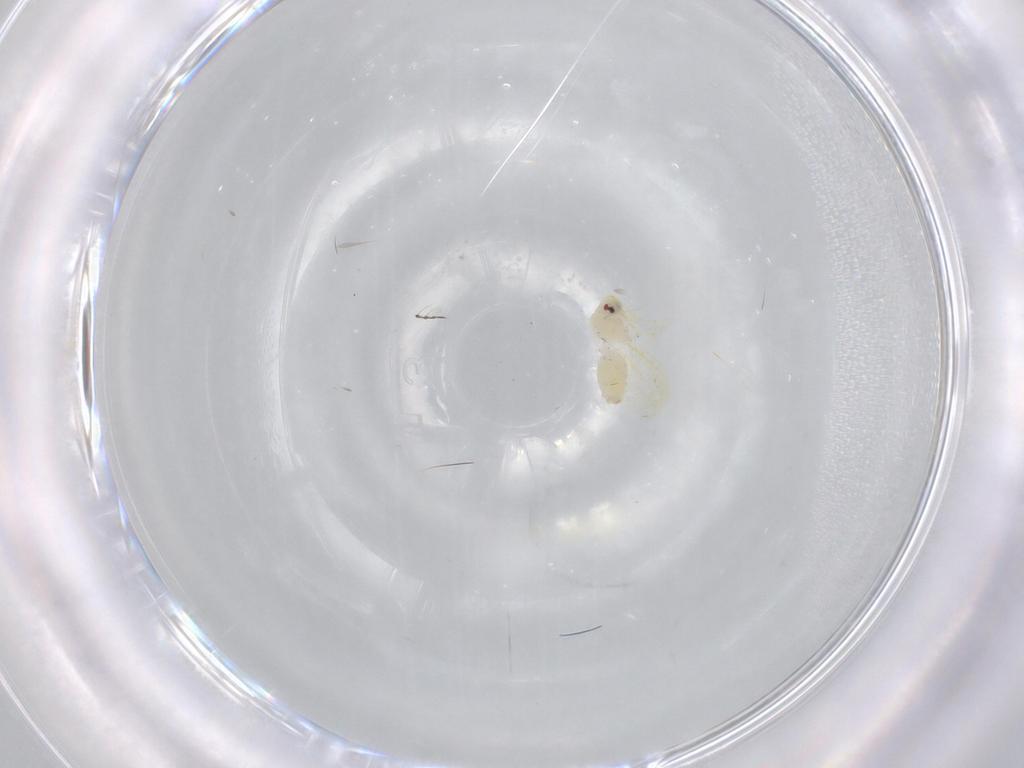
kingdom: Animalia
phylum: Arthropoda
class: Insecta
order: Hemiptera
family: Aleyrodidae
